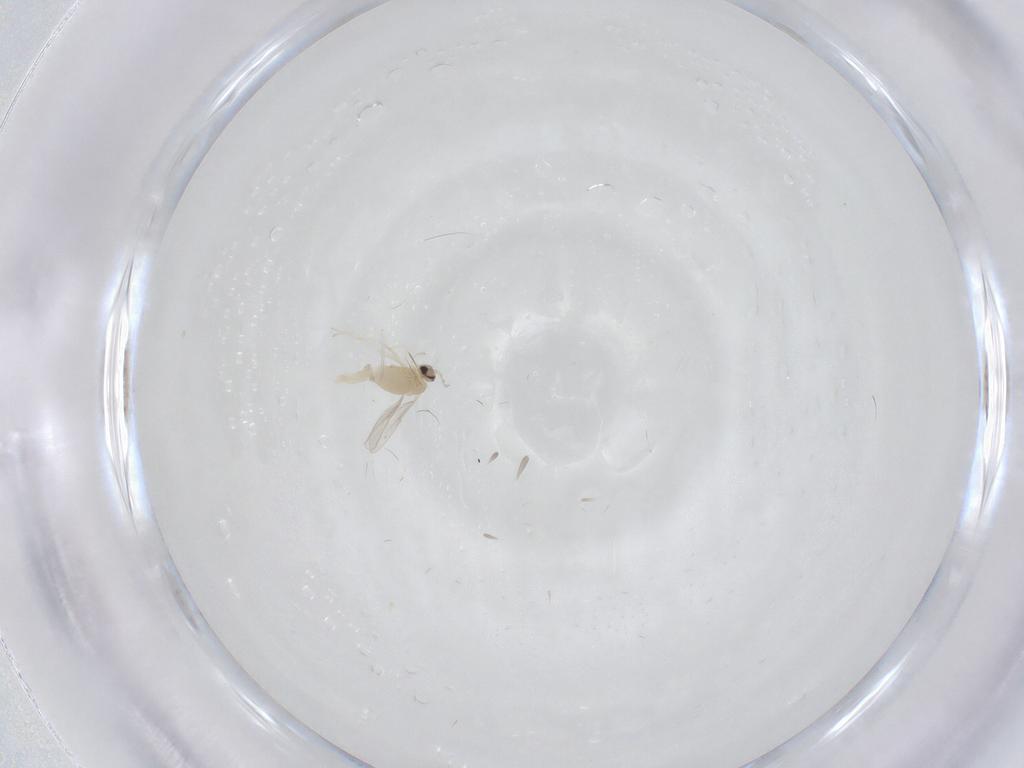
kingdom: Animalia
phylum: Arthropoda
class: Insecta
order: Diptera
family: Cecidomyiidae
